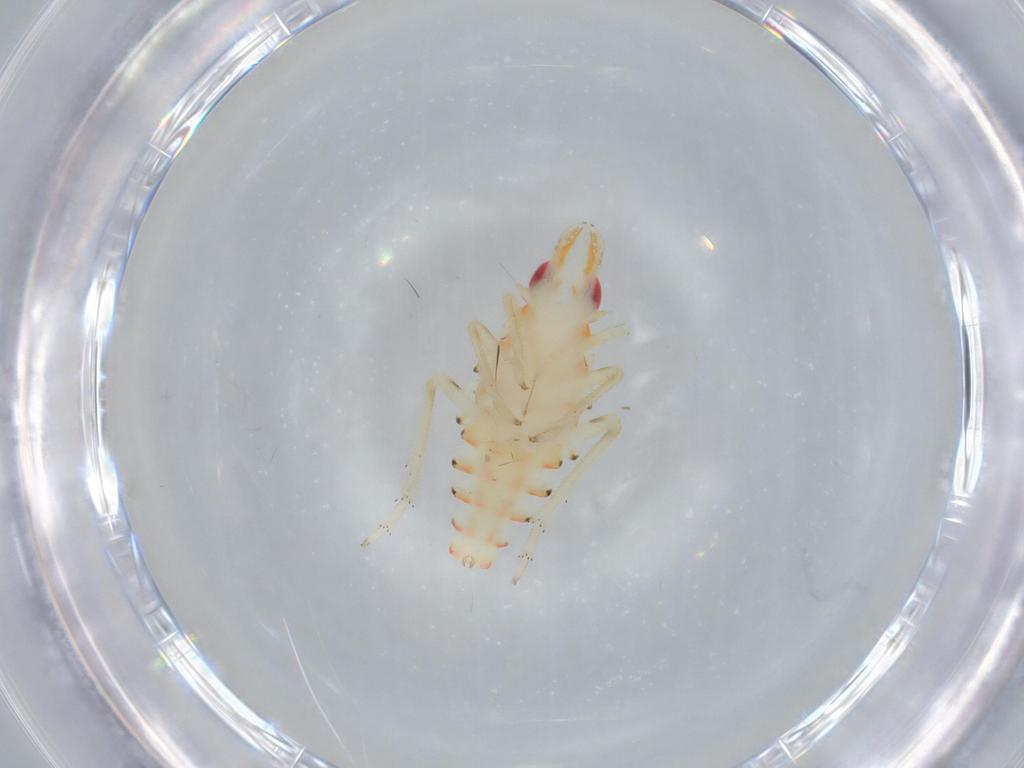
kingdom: Animalia
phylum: Arthropoda
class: Insecta
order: Hemiptera
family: Tropiduchidae
